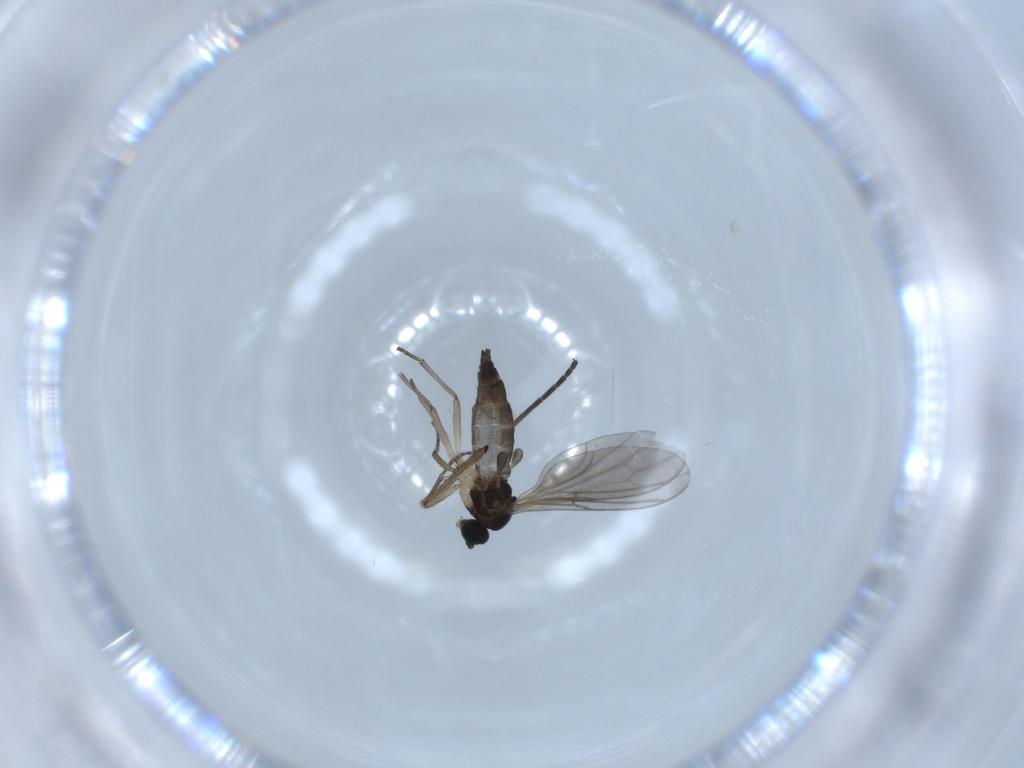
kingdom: Animalia
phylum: Arthropoda
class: Insecta
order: Diptera
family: Sciaridae
